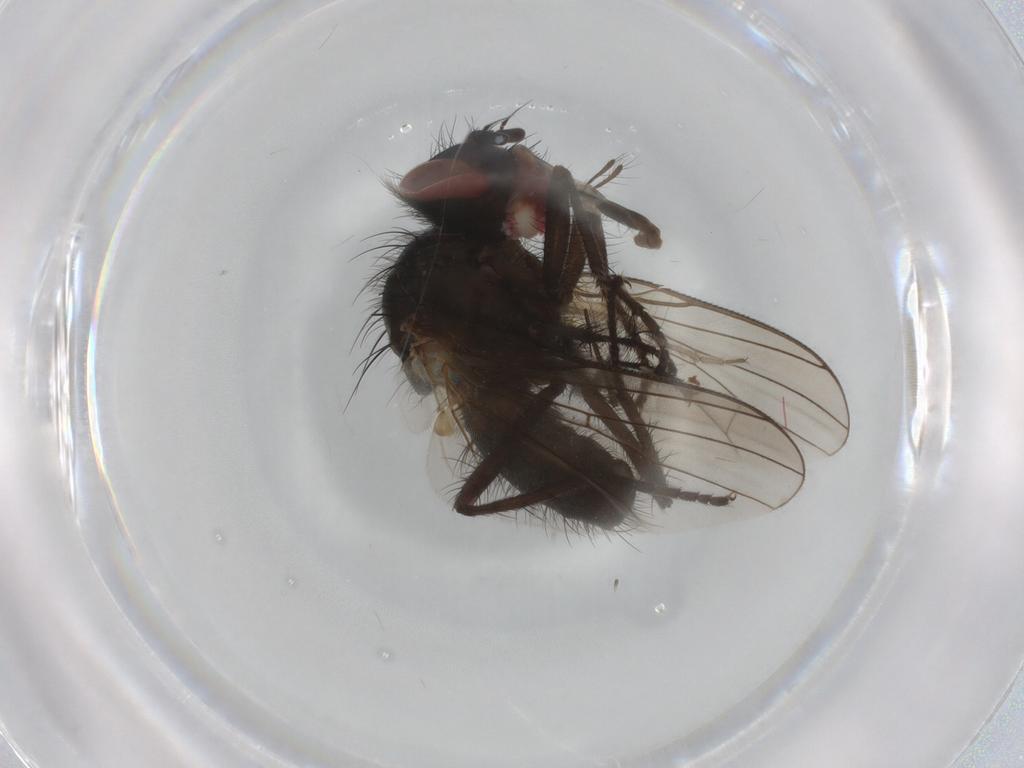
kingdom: Animalia
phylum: Arthropoda
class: Insecta
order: Diptera
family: Anthomyiidae
